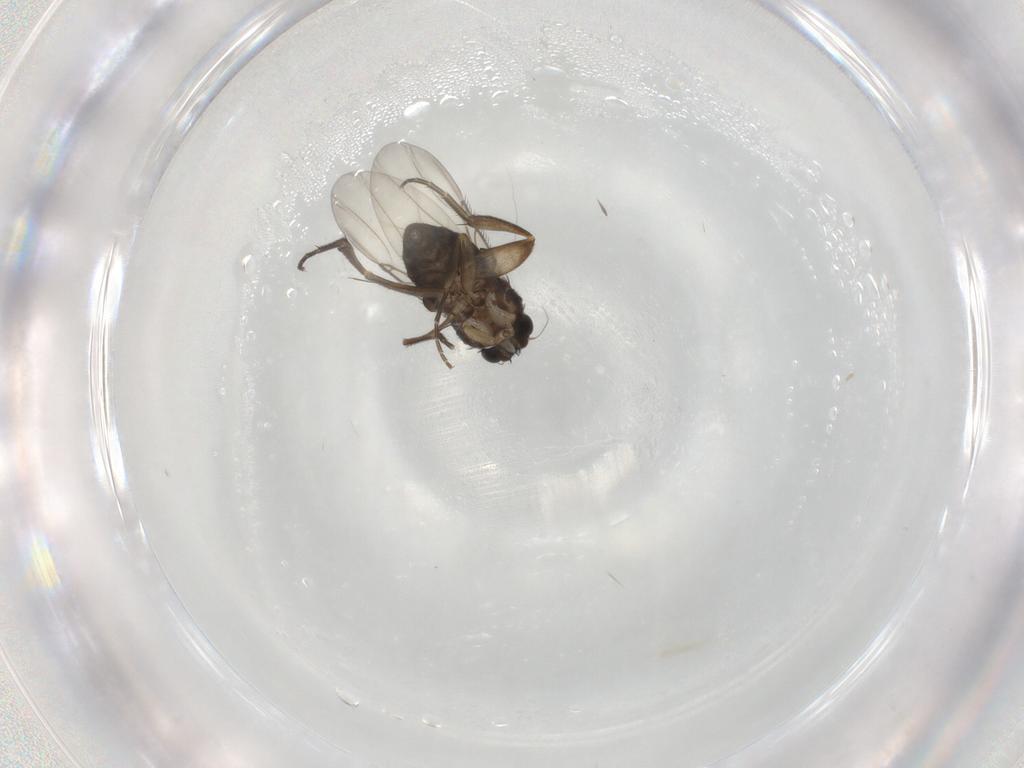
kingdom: Animalia
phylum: Arthropoda
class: Insecta
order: Diptera
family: Phoridae
